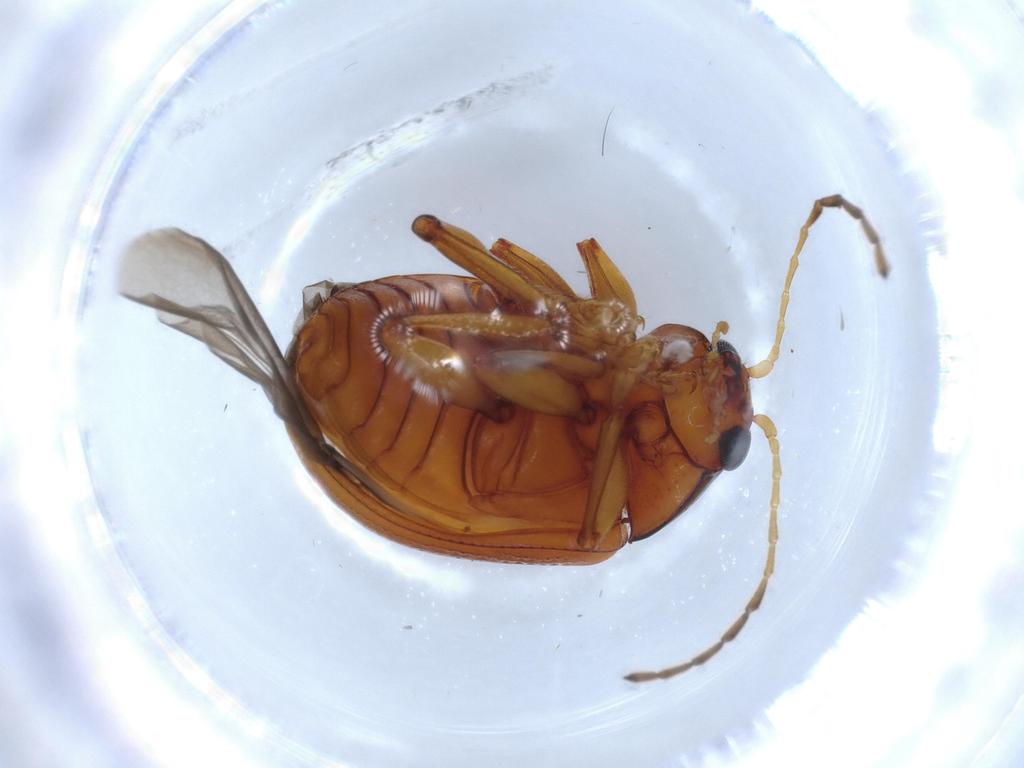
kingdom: Animalia
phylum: Arthropoda
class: Insecta
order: Coleoptera
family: Chrysomelidae
